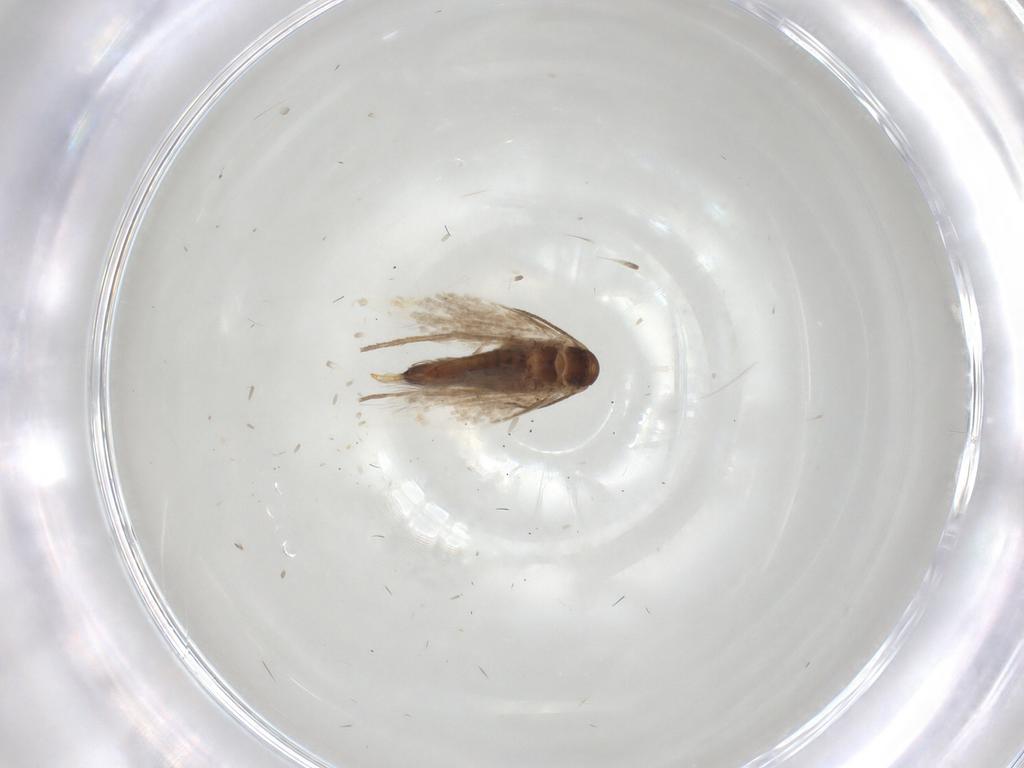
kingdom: Animalia
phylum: Arthropoda
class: Insecta
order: Lepidoptera
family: Heliozelidae
